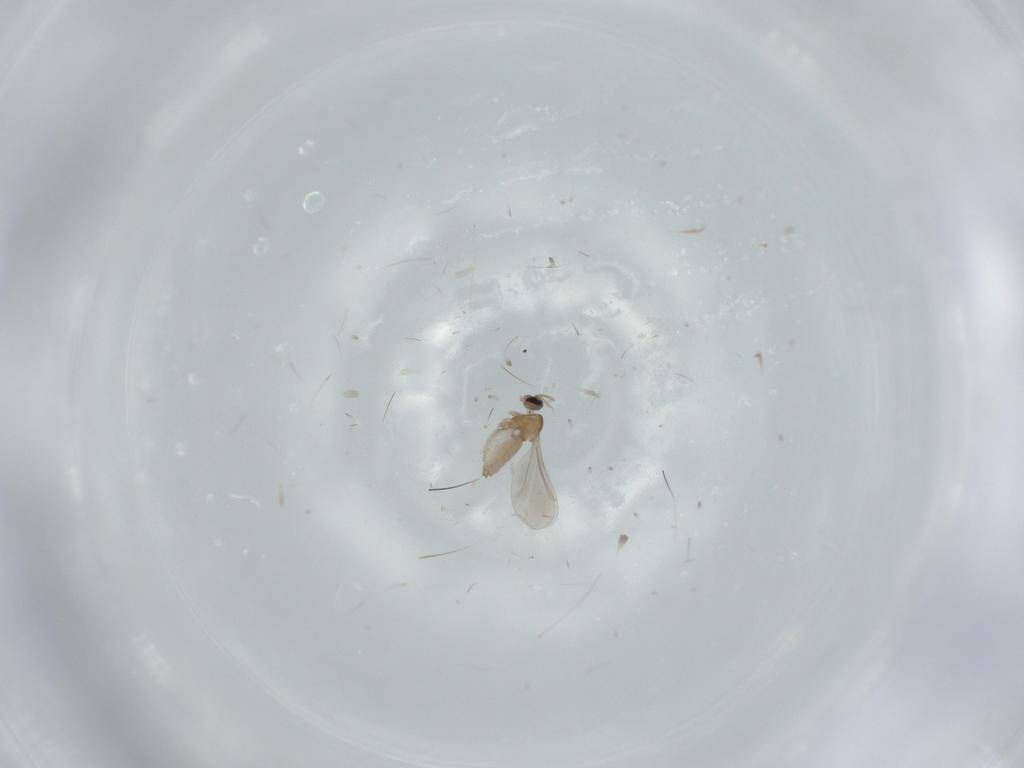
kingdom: Animalia
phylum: Arthropoda
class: Insecta
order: Diptera
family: Cecidomyiidae
